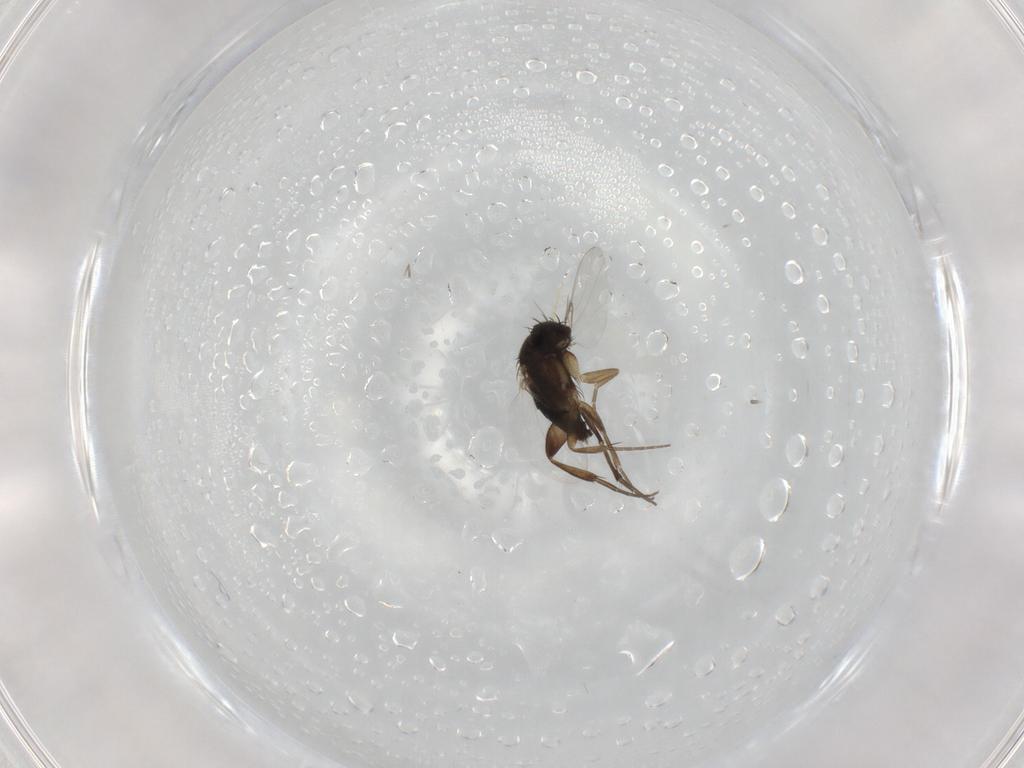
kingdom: Animalia
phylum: Arthropoda
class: Insecta
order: Diptera
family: Phoridae
